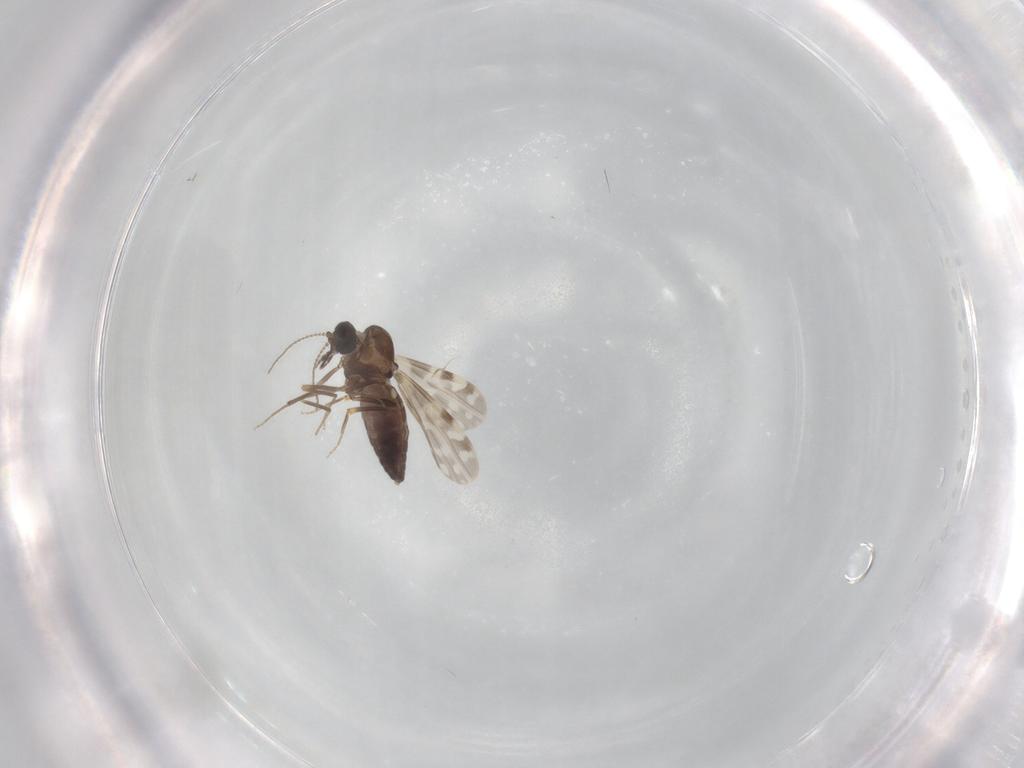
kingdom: Animalia
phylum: Arthropoda
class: Insecta
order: Diptera
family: Ceratopogonidae
